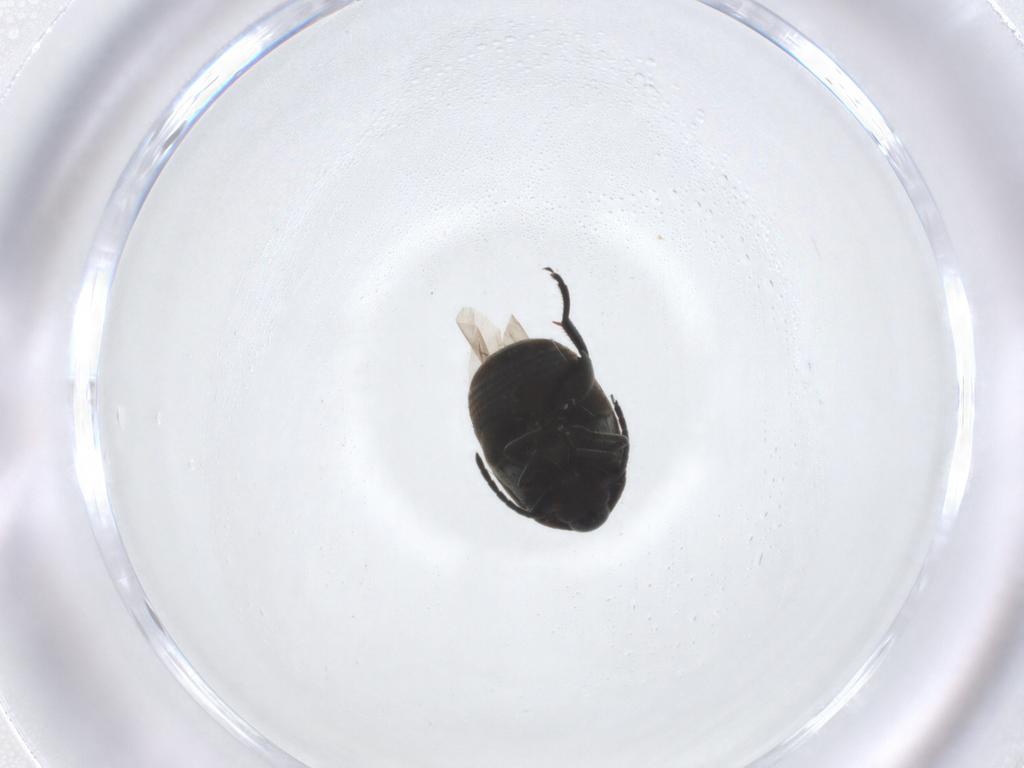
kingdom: Animalia
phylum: Arthropoda
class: Insecta
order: Coleoptera
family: Chrysomelidae
